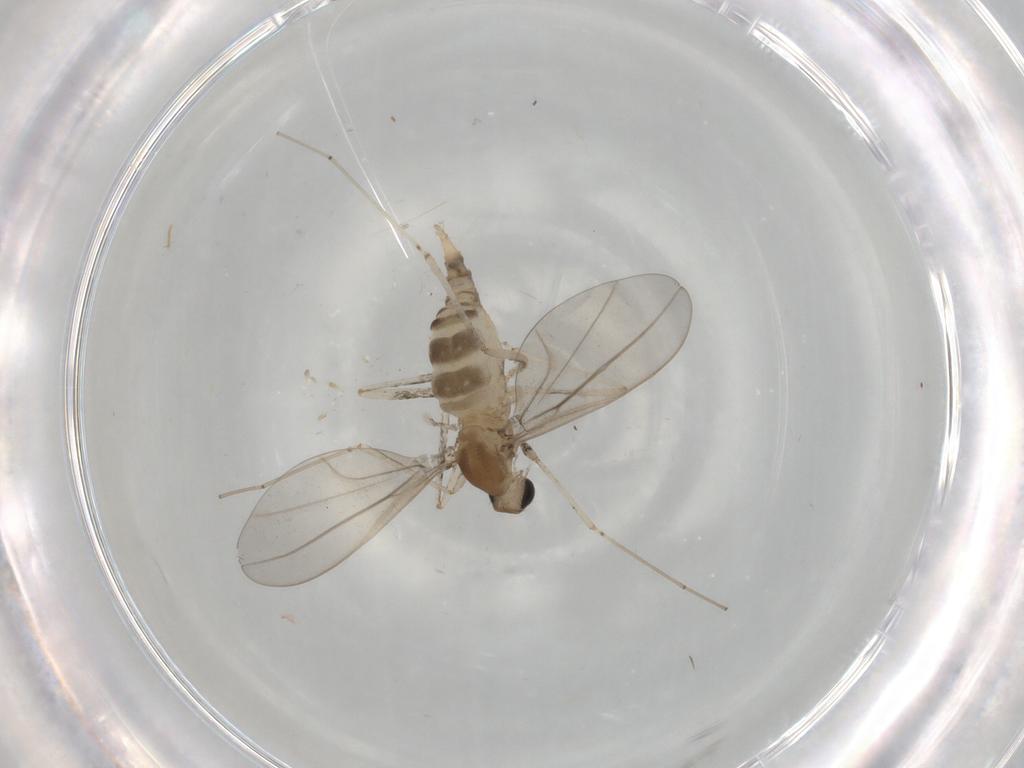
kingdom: Animalia
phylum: Arthropoda
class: Insecta
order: Diptera
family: Cecidomyiidae
